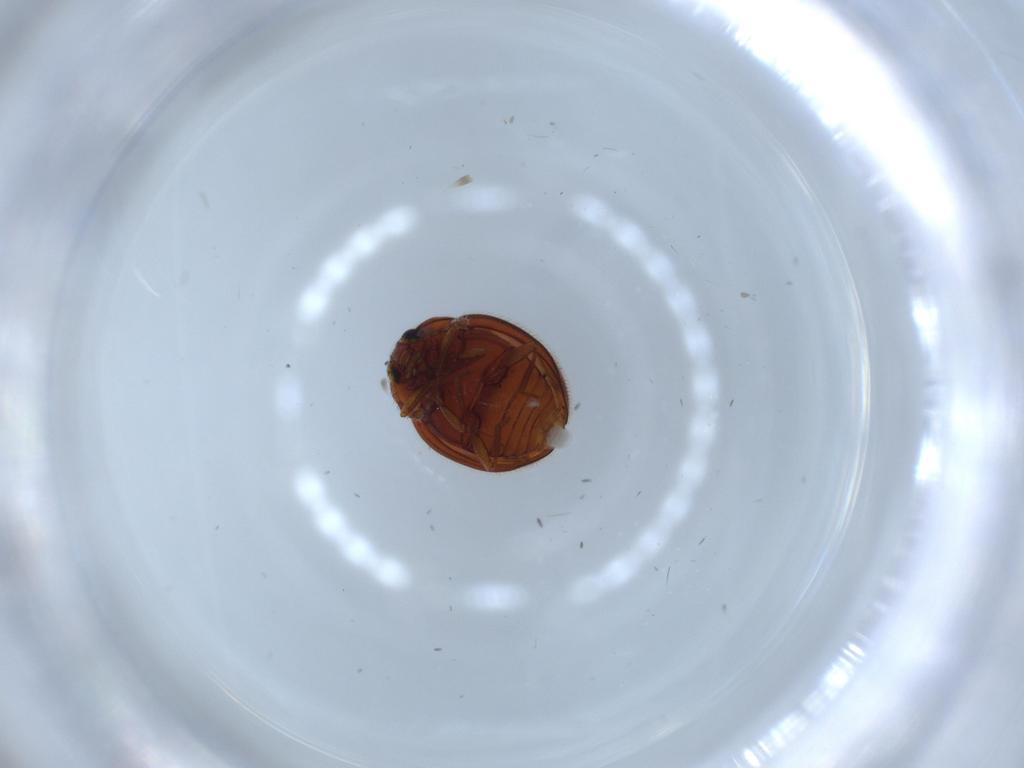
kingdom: Animalia
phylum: Arthropoda
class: Insecta
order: Coleoptera
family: Anamorphidae
